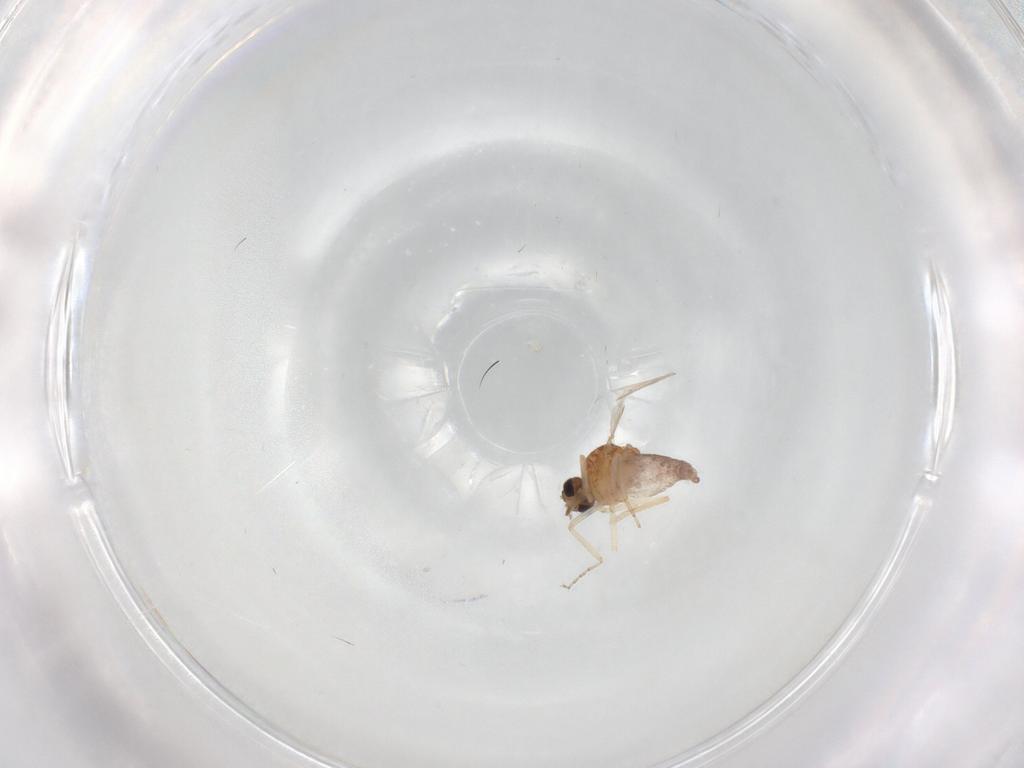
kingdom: Animalia
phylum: Arthropoda
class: Insecta
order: Diptera
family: Ceratopogonidae
